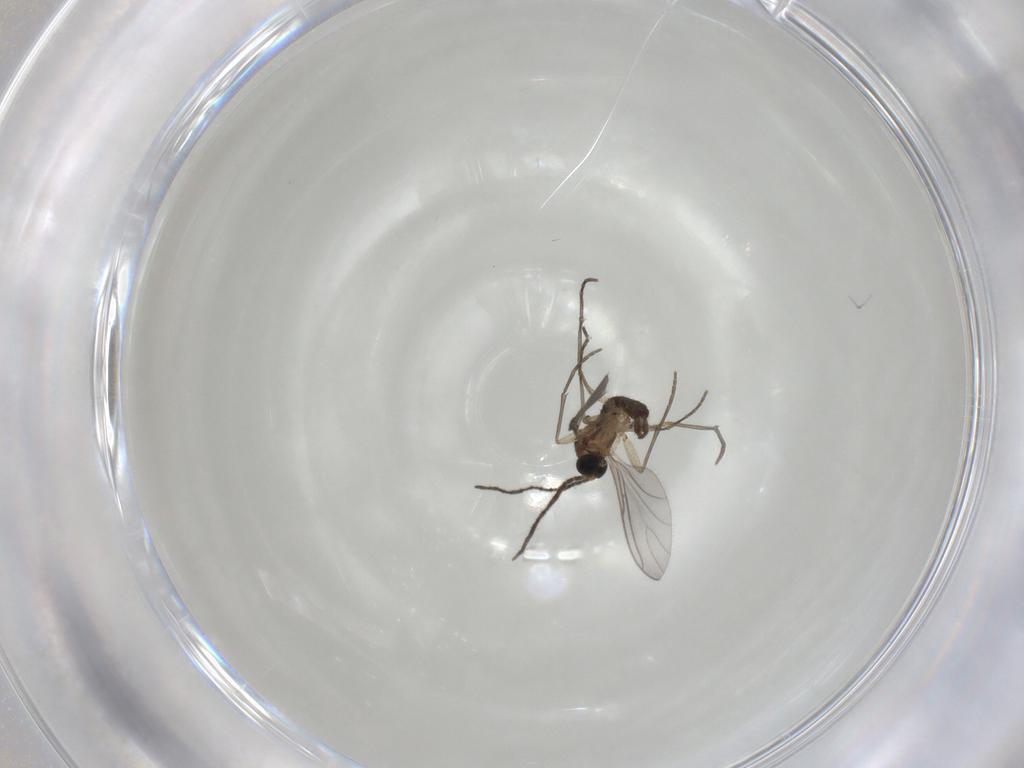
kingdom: Animalia
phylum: Arthropoda
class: Insecta
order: Diptera
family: Sciaridae
